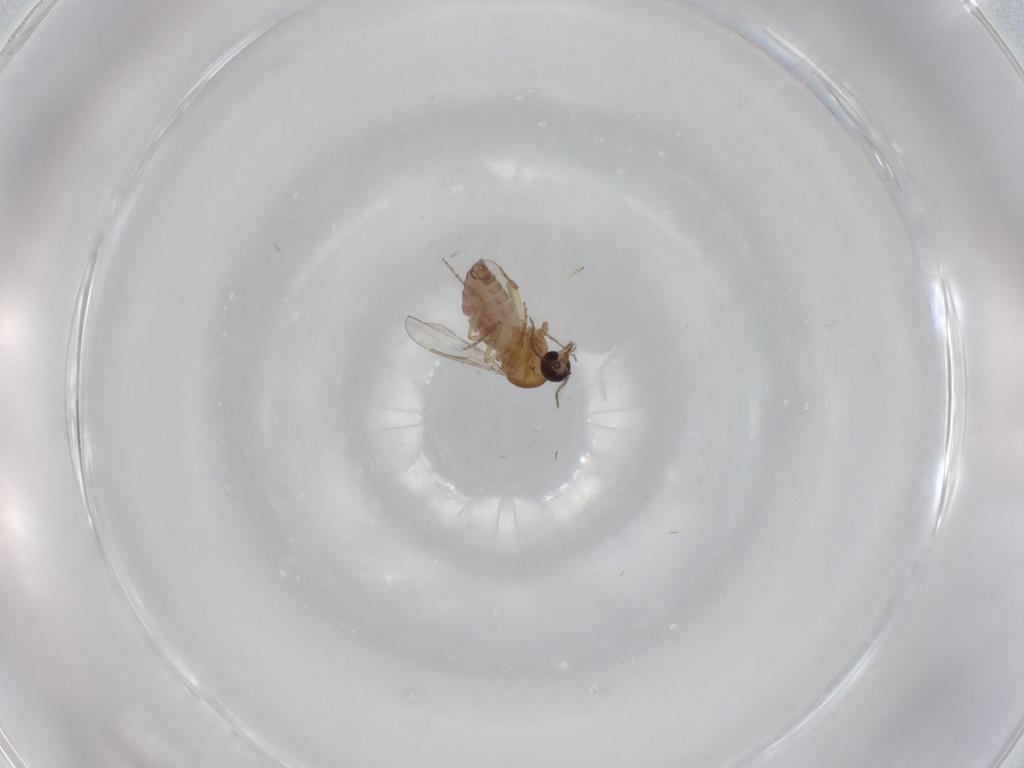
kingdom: Animalia
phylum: Arthropoda
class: Insecta
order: Diptera
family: Ceratopogonidae
